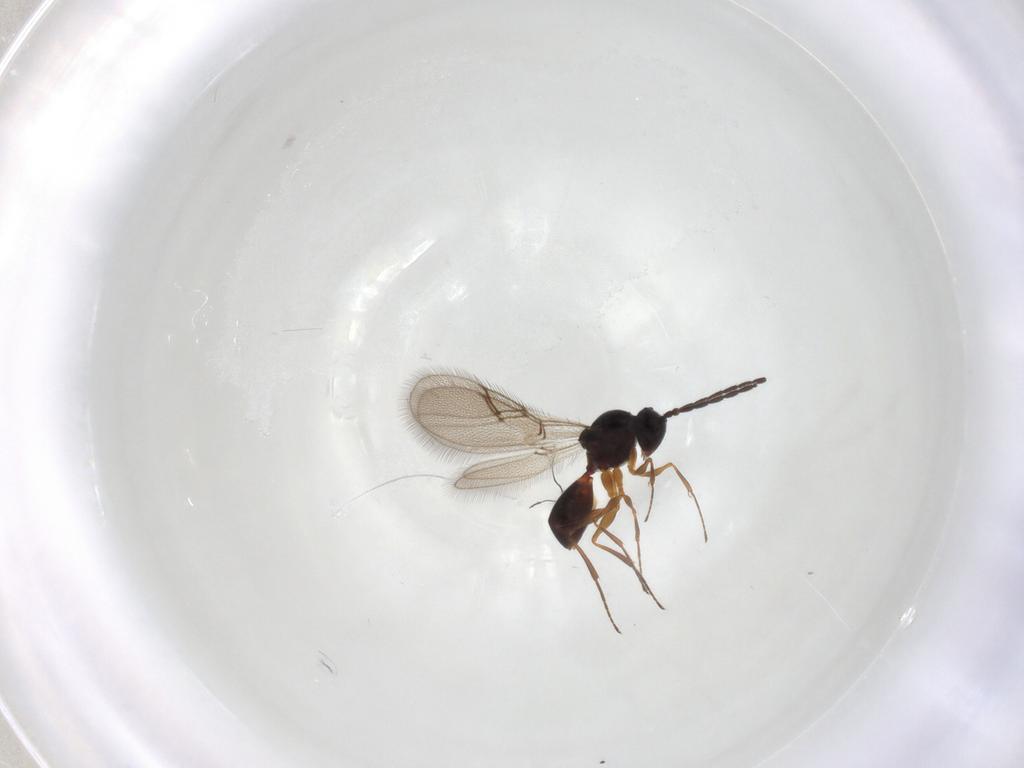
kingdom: Animalia
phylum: Arthropoda
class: Insecta
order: Hymenoptera
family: Figitidae
